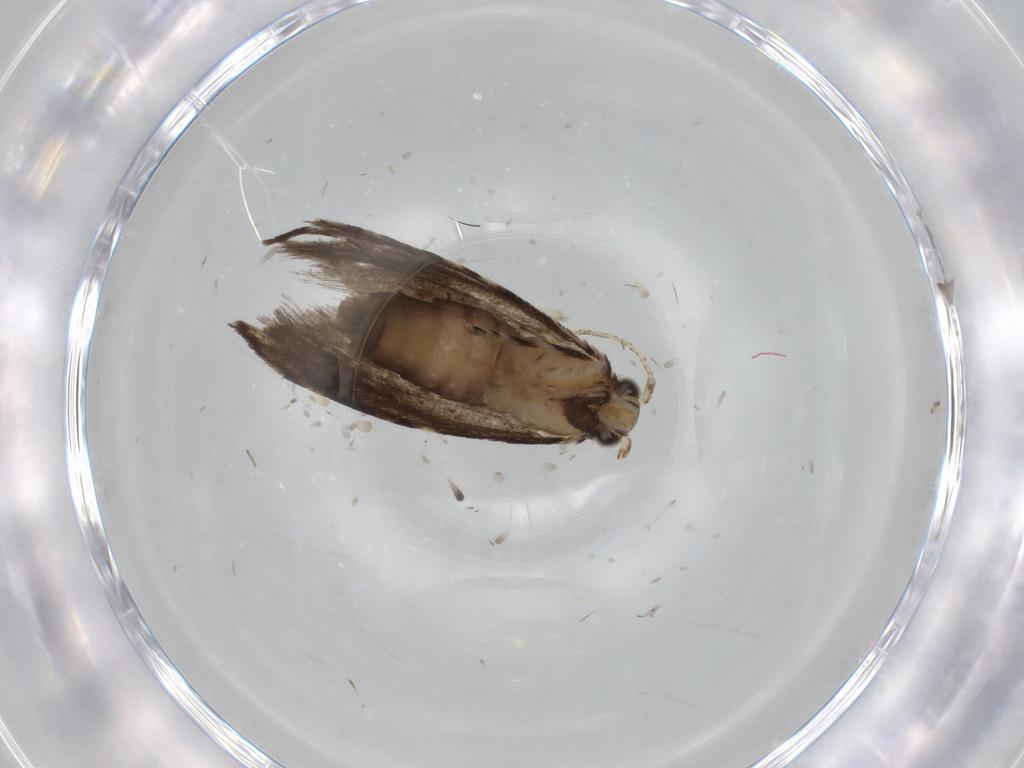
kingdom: Animalia
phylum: Arthropoda
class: Insecta
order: Lepidoptera
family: Tineidae
